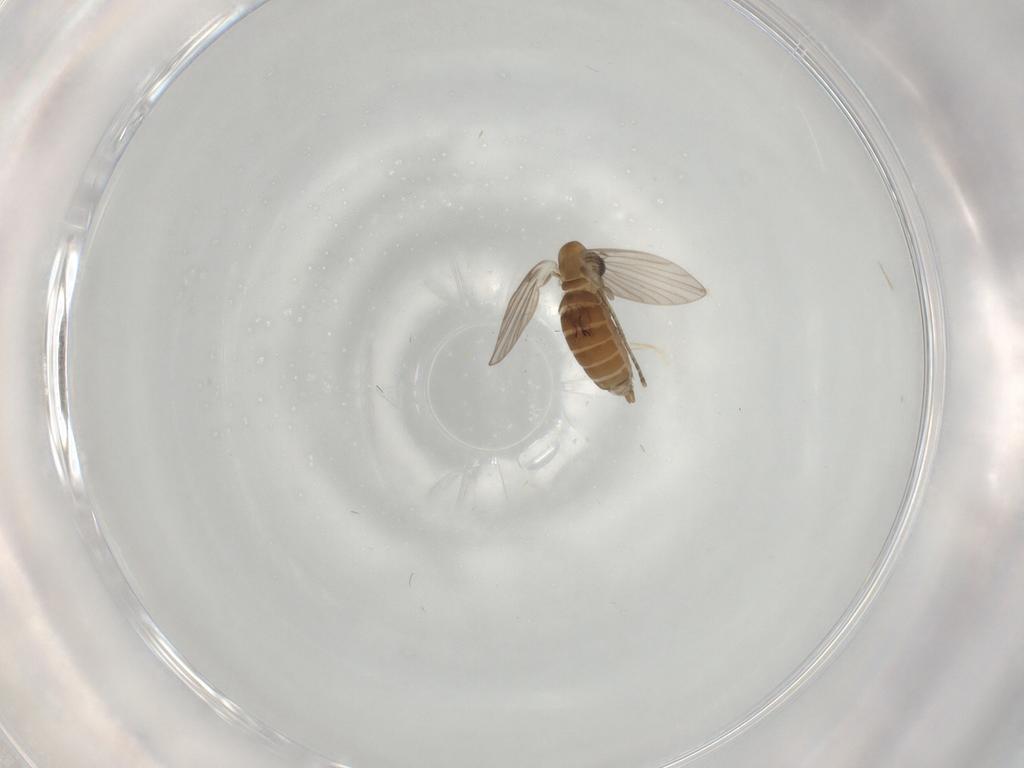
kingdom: Animalia
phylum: Arthropoda
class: Insecta
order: Diptera
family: Psychodidae
